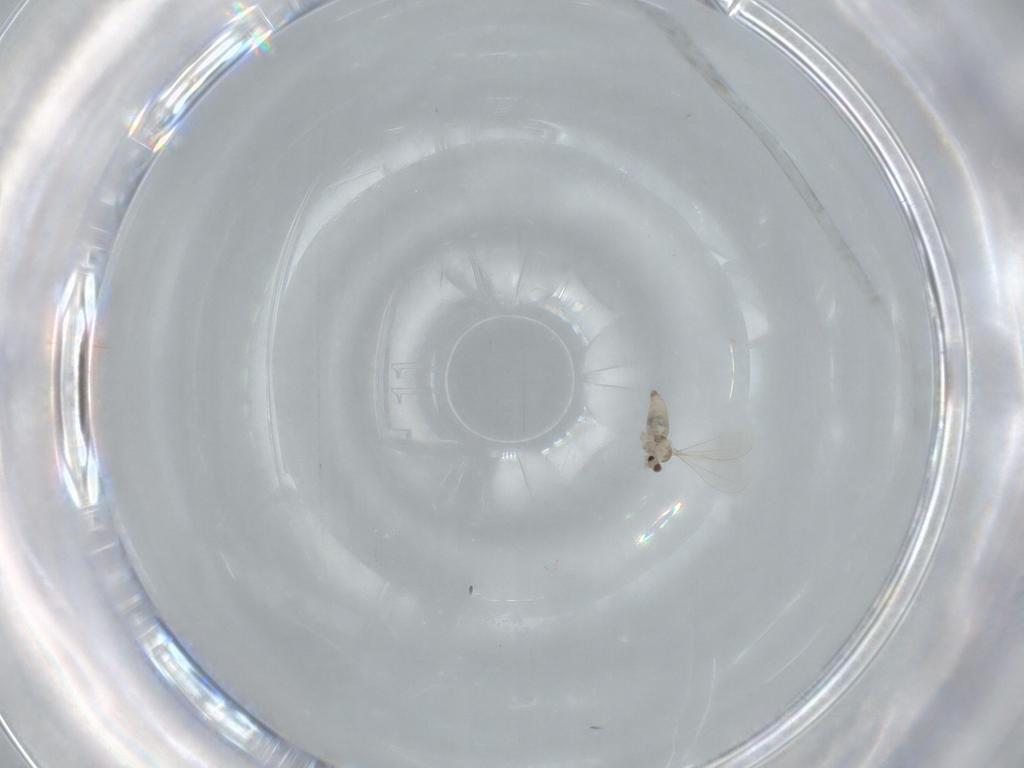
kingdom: Animalia
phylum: Arthropoda
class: Insecta
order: Diptera
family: Cecidomyiidae
